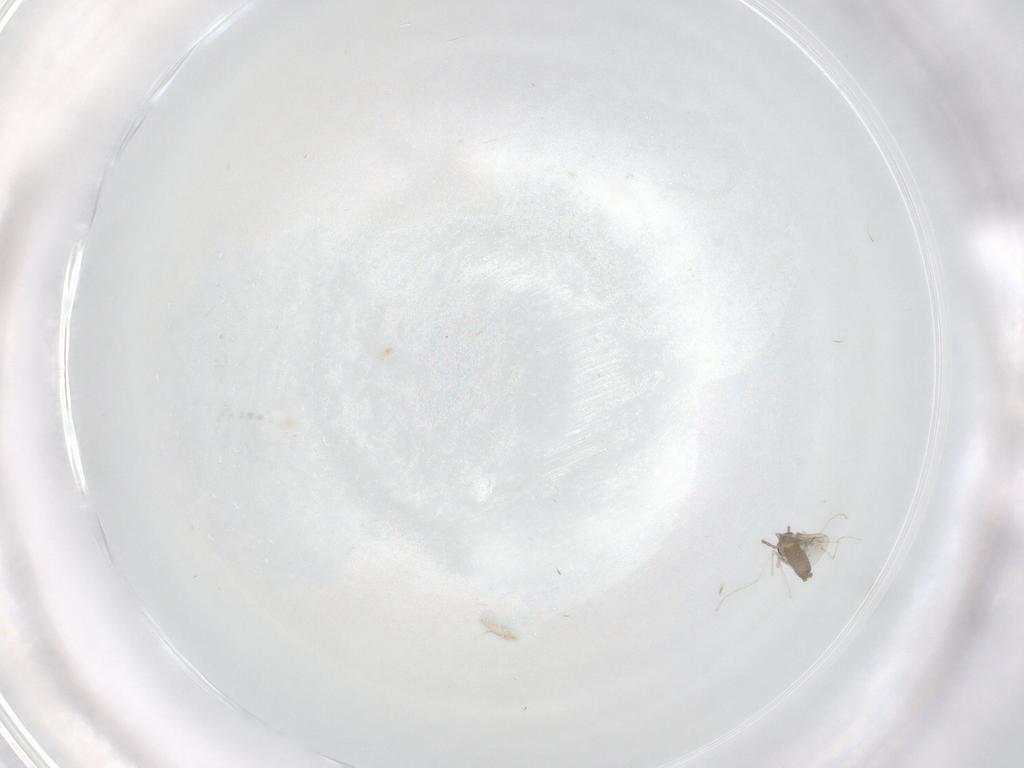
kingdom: Animalia
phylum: Arthropoda
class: Insecta
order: Diptera
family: Cecidomyiidae
